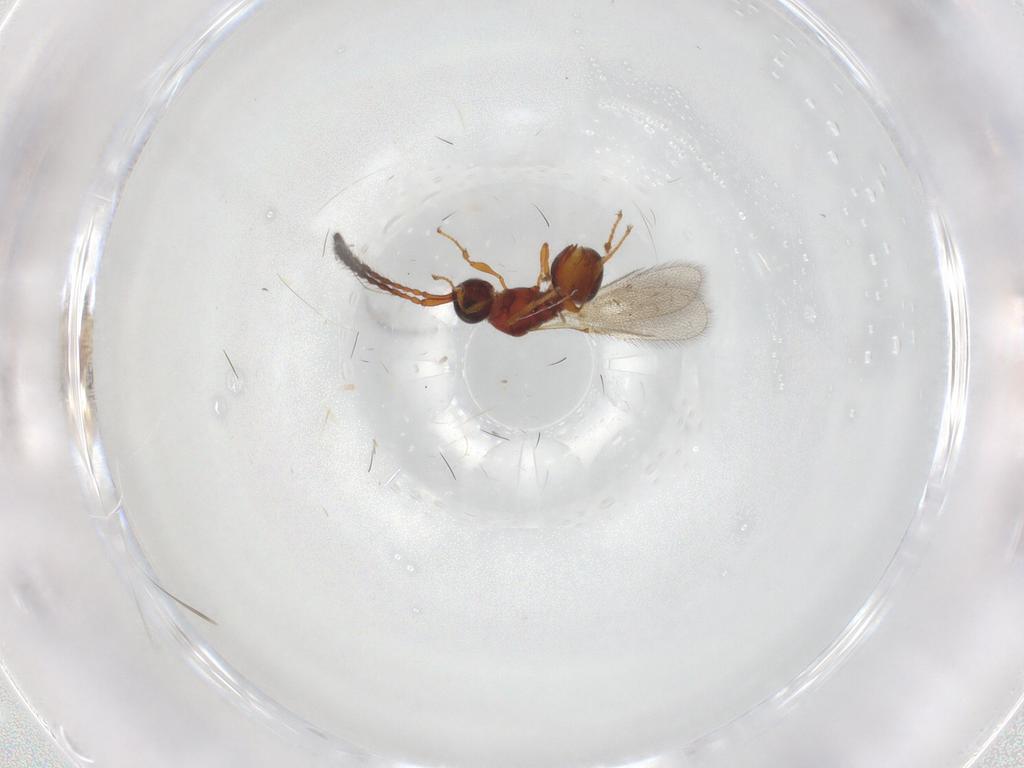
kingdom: Animalia
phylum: Arthropoda
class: Insecta
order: Hymenoptera
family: Diapriidae
